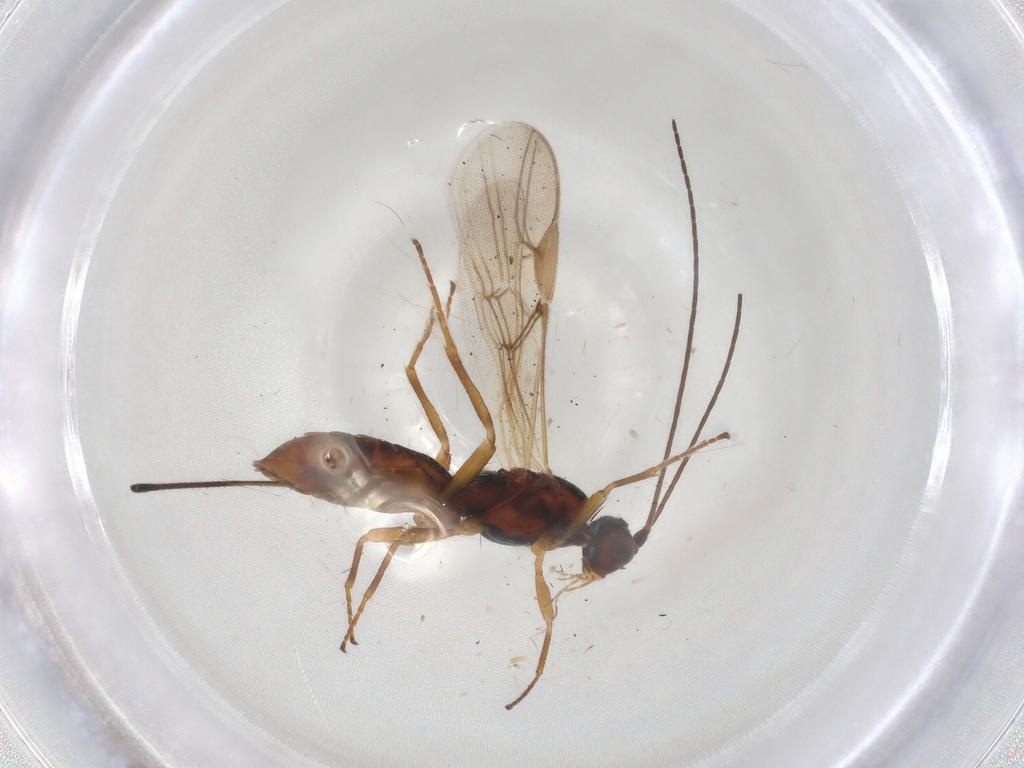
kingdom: Animalia
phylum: Arthropoda
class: Insecta
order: Hymenoptera
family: Braconidae
